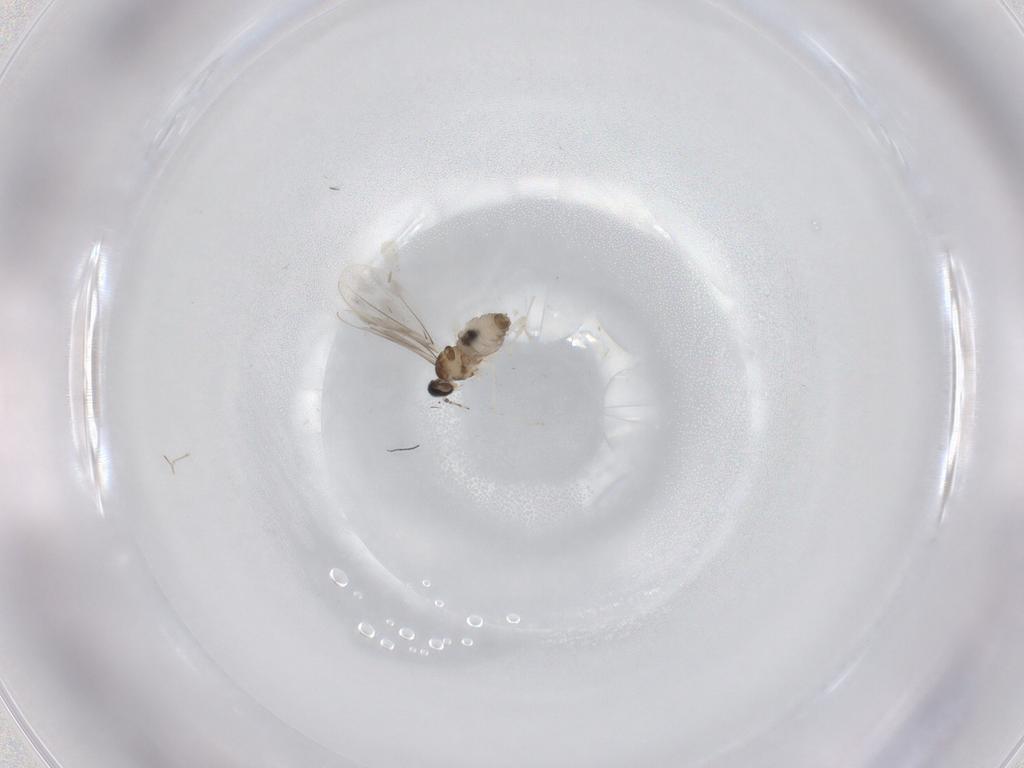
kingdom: Animalia
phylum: Arthropoda
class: Insecta
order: Diptera
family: Cecidomyiidae
